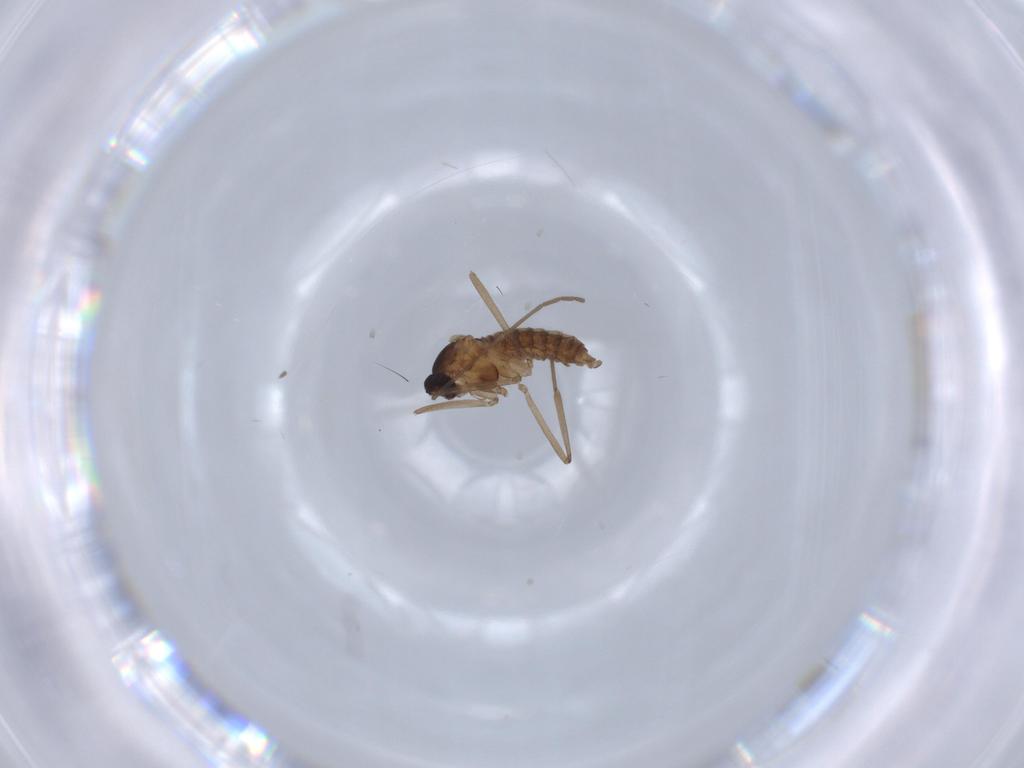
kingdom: Animalia
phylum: Arthropoda
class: Insecta
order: Diptera
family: Cecidomyiidae
